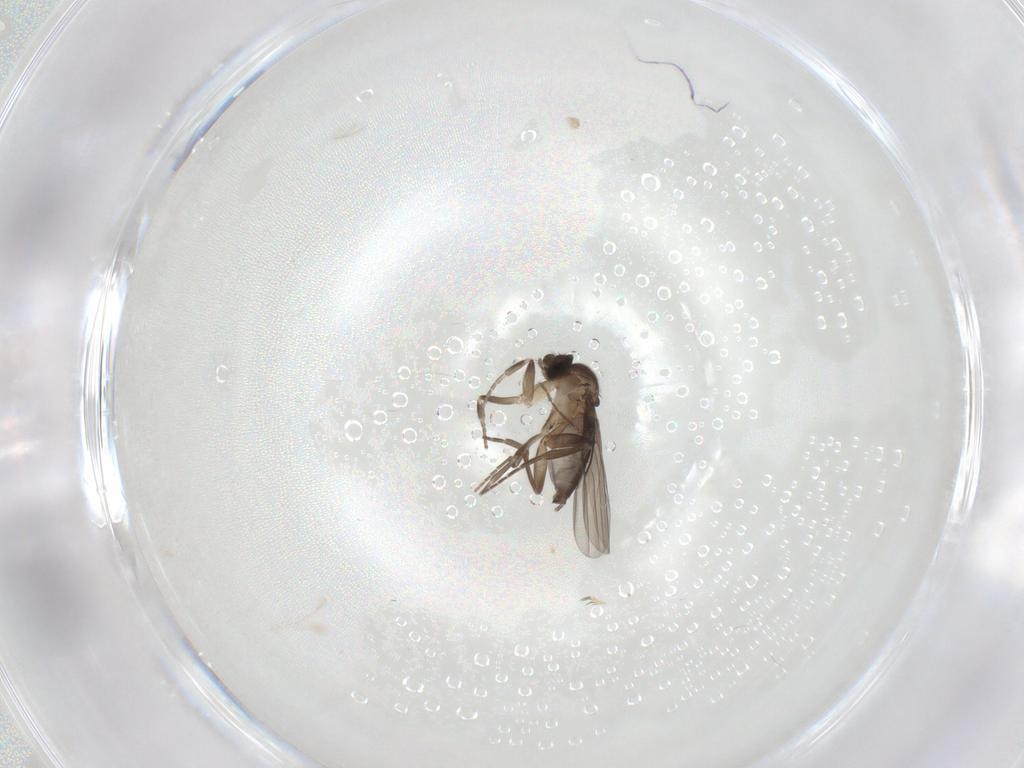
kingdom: Animalia
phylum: Arthropoda
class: Insecta
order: Diptera
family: Ceratopogonidae
